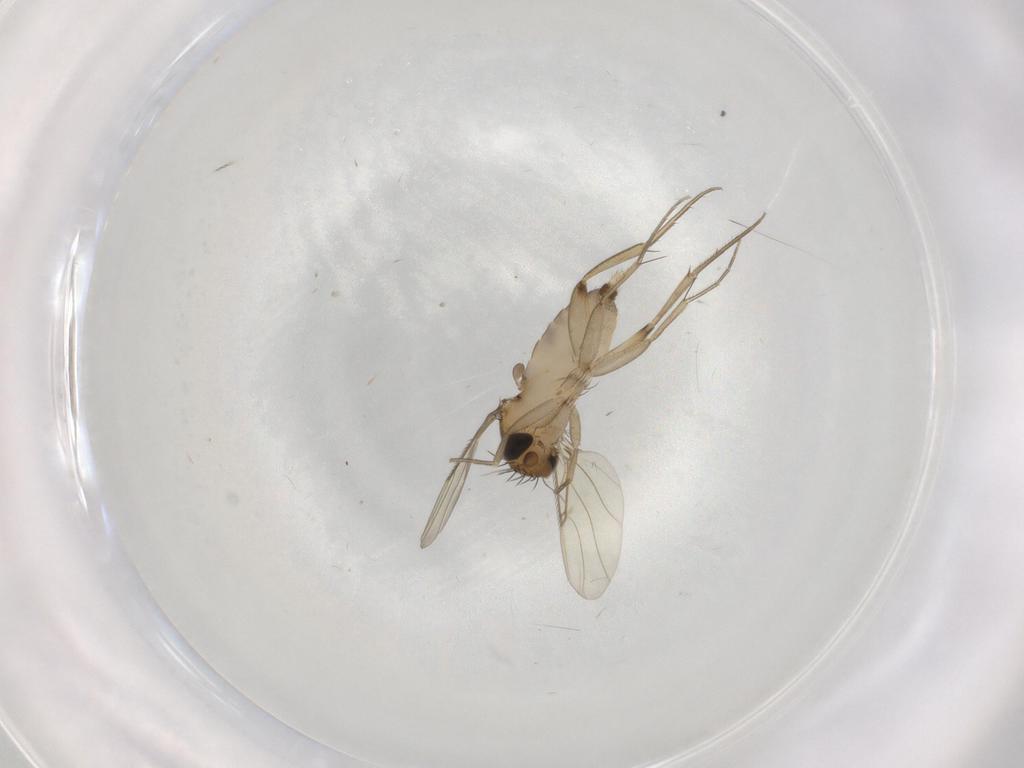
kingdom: Animalia
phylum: Arthropoda
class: Insecta
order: Diptera
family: Phoridae
